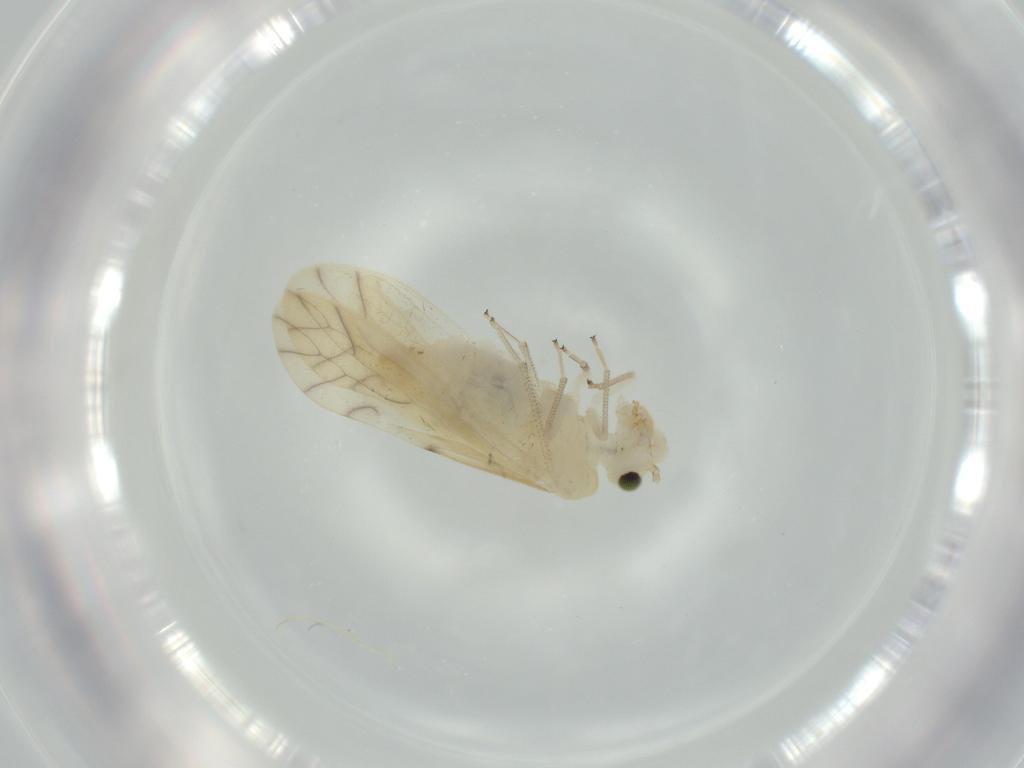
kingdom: Animalia
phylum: Arthropoda
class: Insecta
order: Psocodea
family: Caeciliusidae
